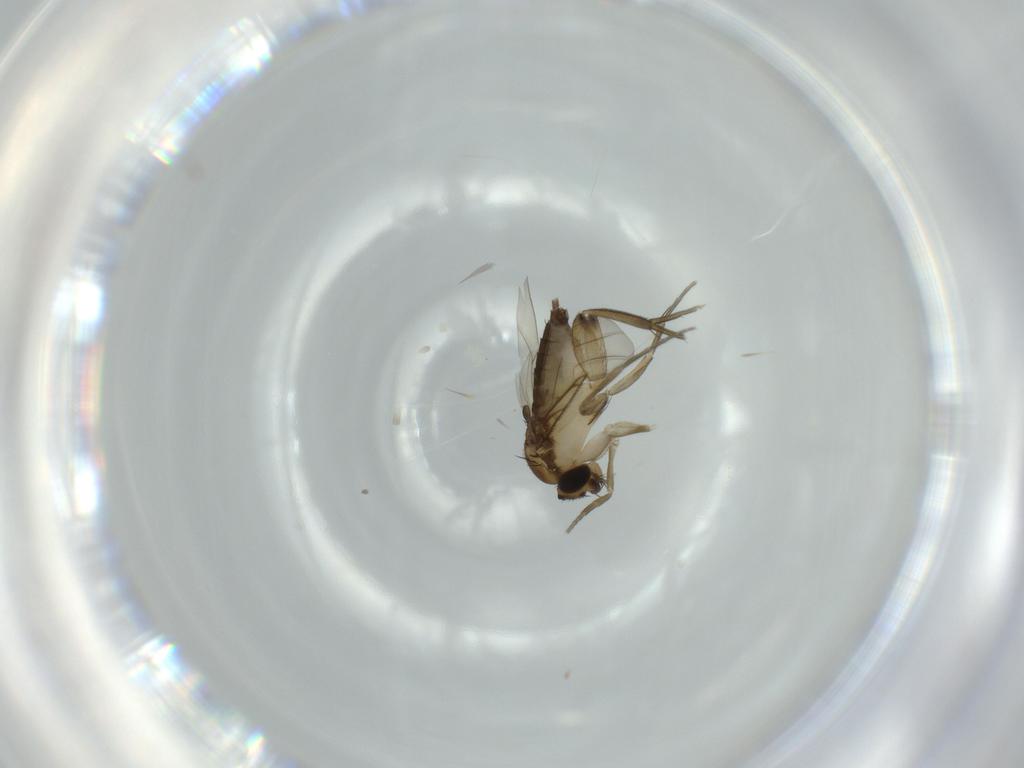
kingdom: Animalia
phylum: Arthropoda
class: Insecta
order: Diptera
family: Phoridae
